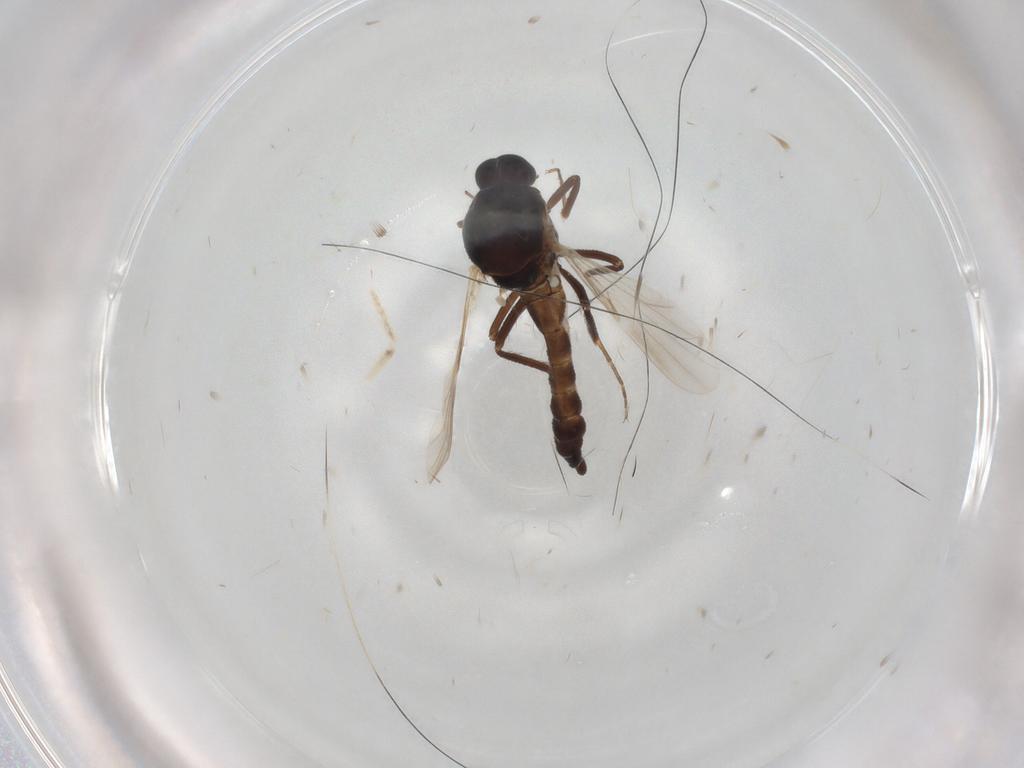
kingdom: Animalia
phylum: Arthropoda
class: Insecta
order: Diptera
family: Ceratopogonidae
